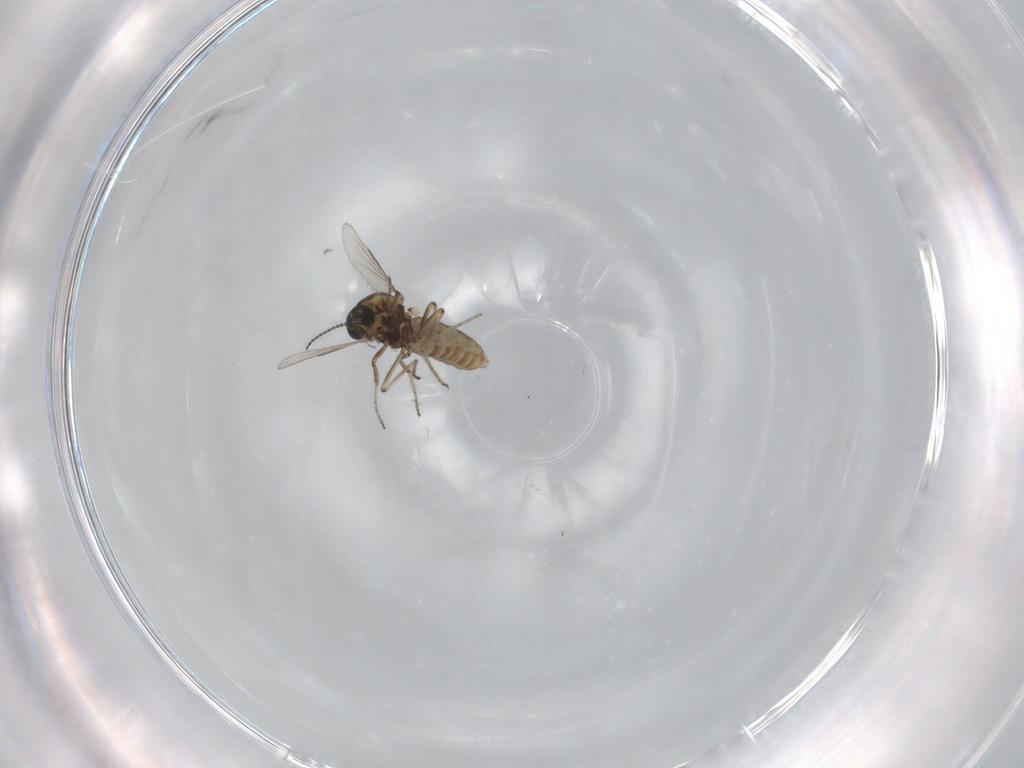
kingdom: Animalia
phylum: Arthropoda
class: Insecta
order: Diptera
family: Ceratopogonidae
